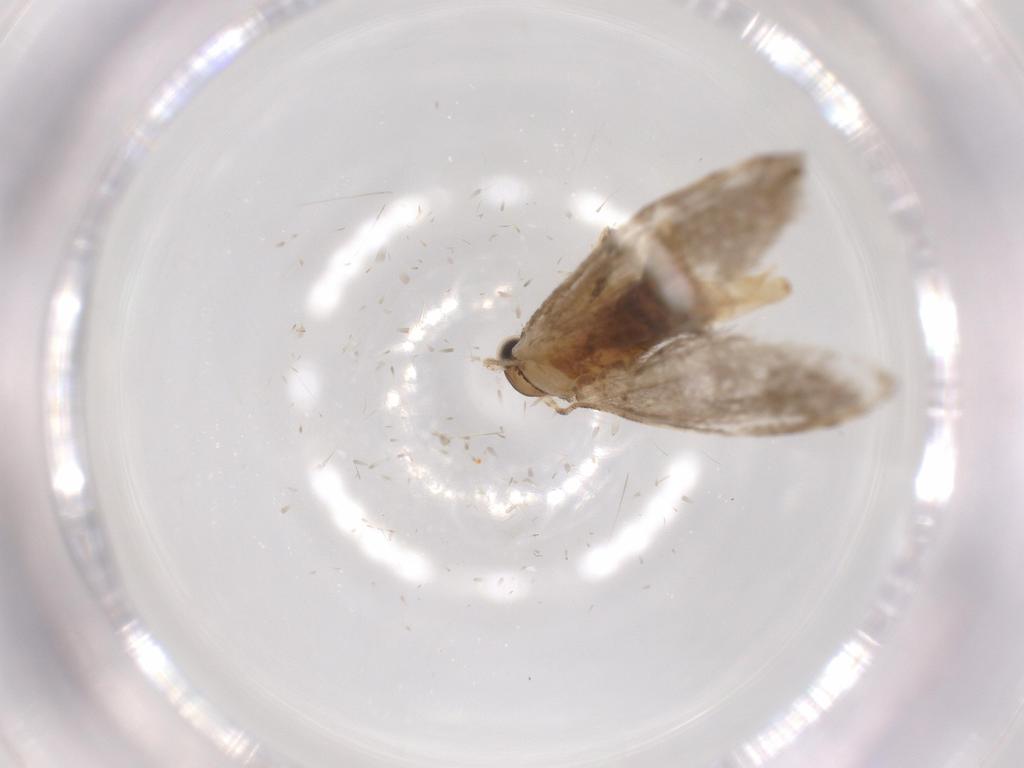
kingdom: Animalia
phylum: Arthropoda
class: Insecta
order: Lepidoptera
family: Tineidae
